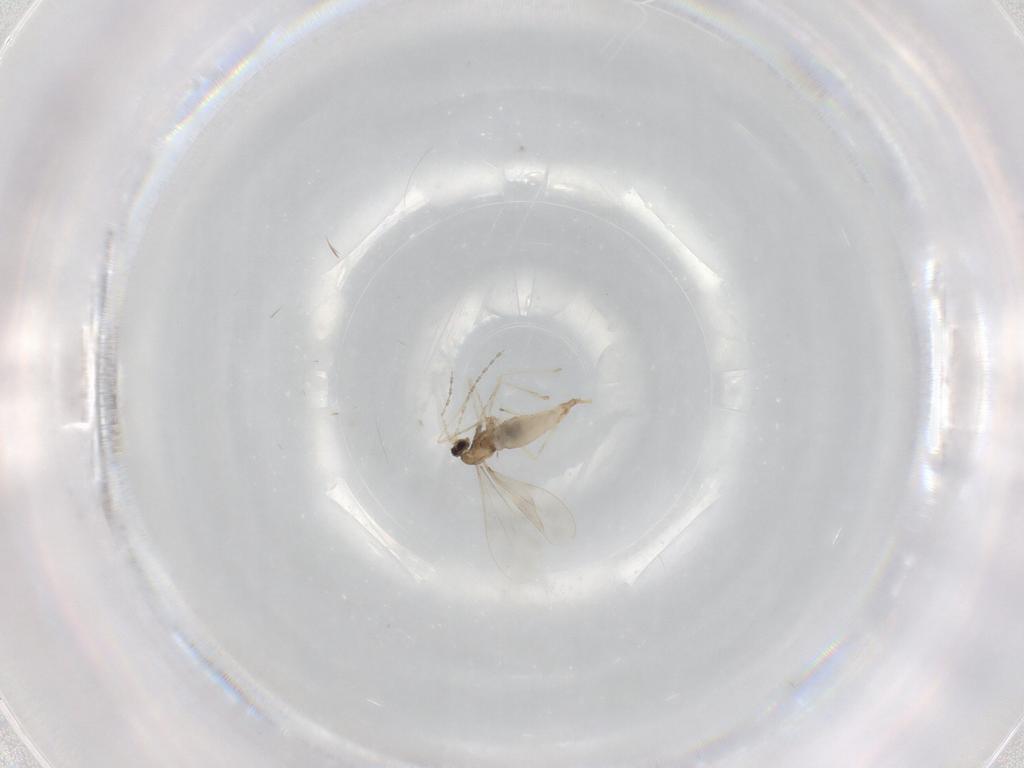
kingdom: Animalia
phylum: Arthropoda
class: Insecta
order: Diptera
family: Cecidomyiidae
